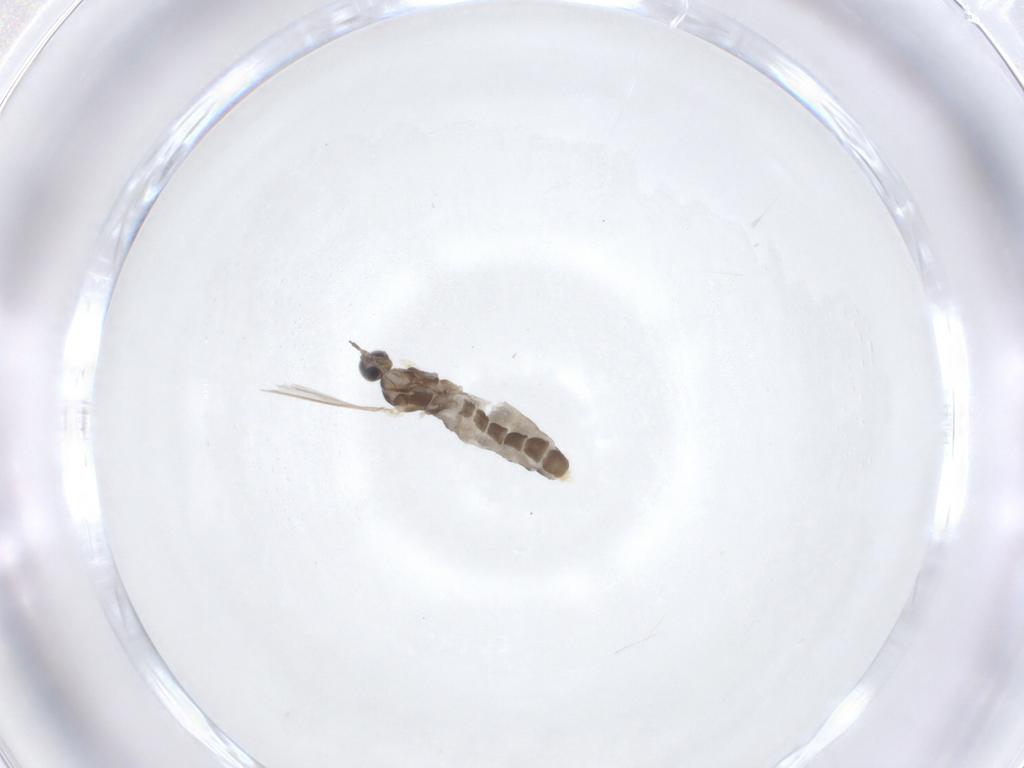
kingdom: Animalia
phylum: Arthropoda
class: Insecta
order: Diptera
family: Cecidomyiidae
